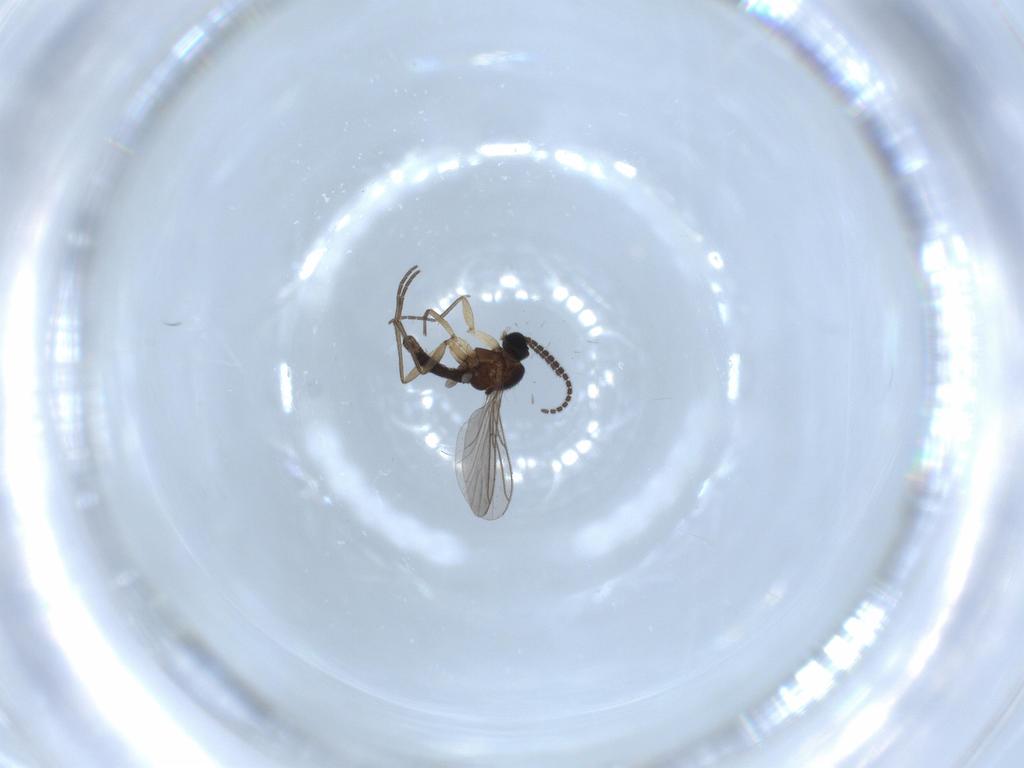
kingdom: Animalia
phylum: Arthropoda
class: Insecta
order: Diptera
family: Sciaridae
